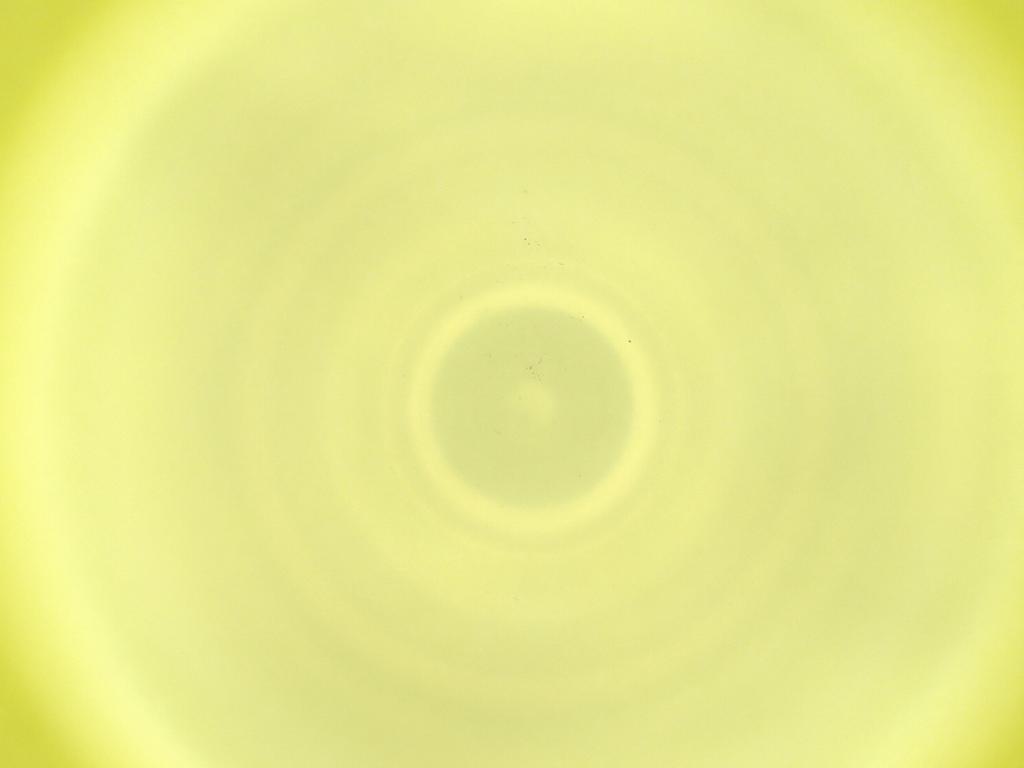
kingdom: Animalia
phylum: Arthropoda
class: Insecta
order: Diptera
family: Cecidomyiidae
